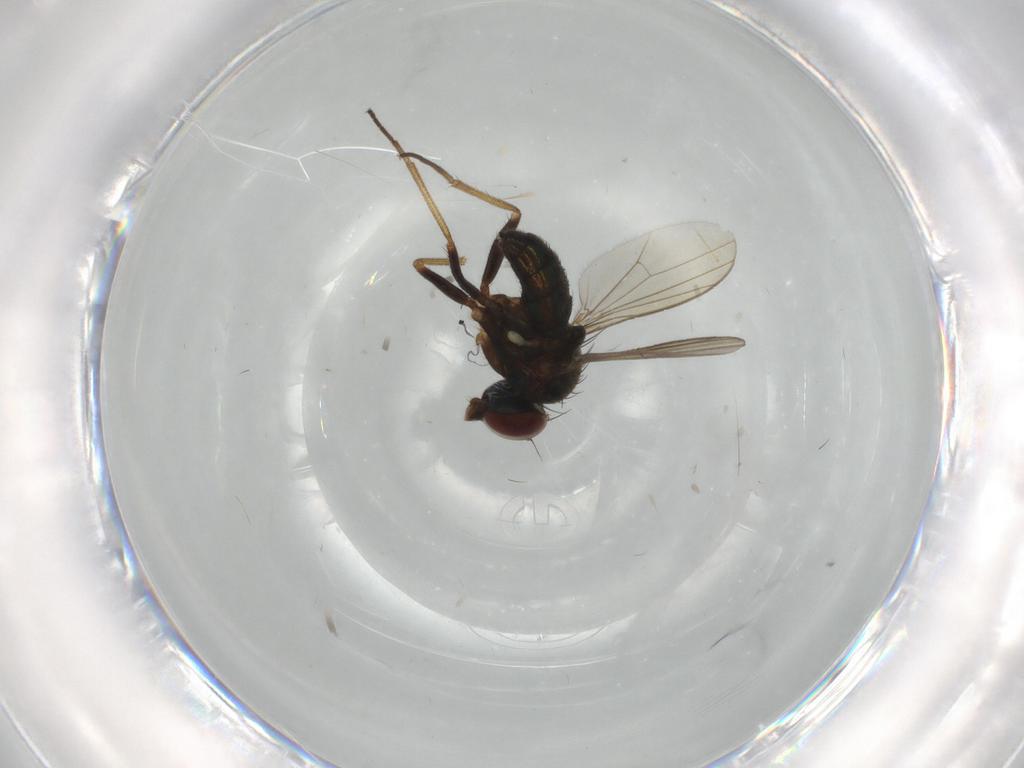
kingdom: Animalia
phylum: Arthropoda
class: Insecta
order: Diptera
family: Dolichopodidae
